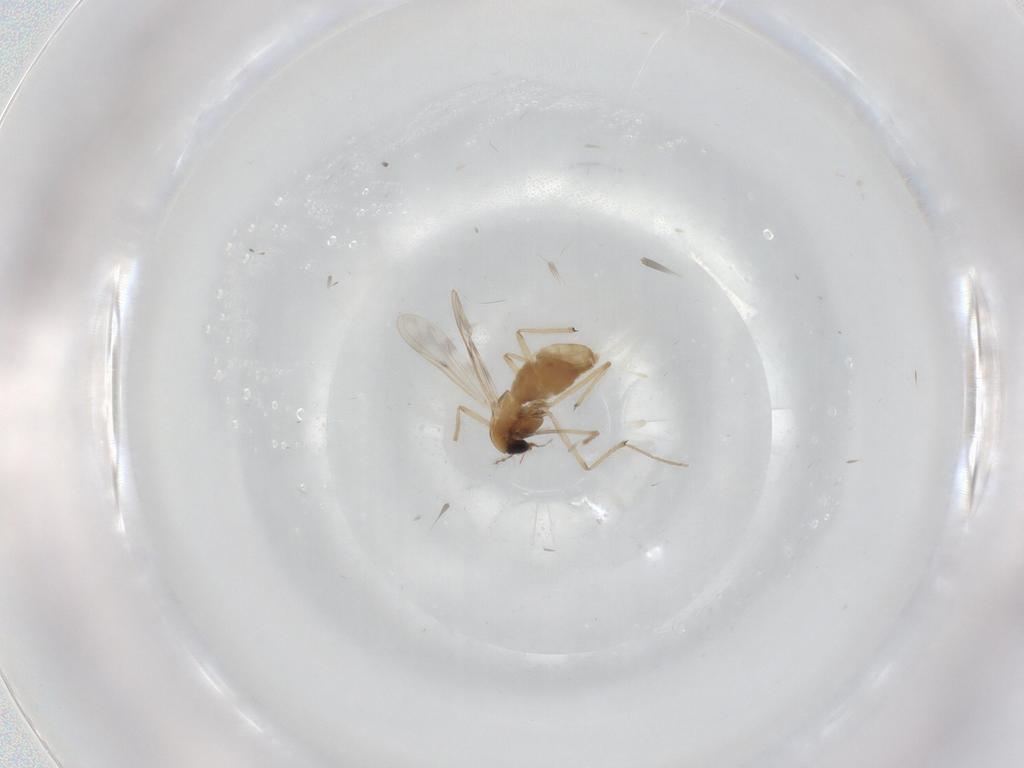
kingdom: Animalia
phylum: Arthropoda
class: Insecta
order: Diptera
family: Chironomidae
